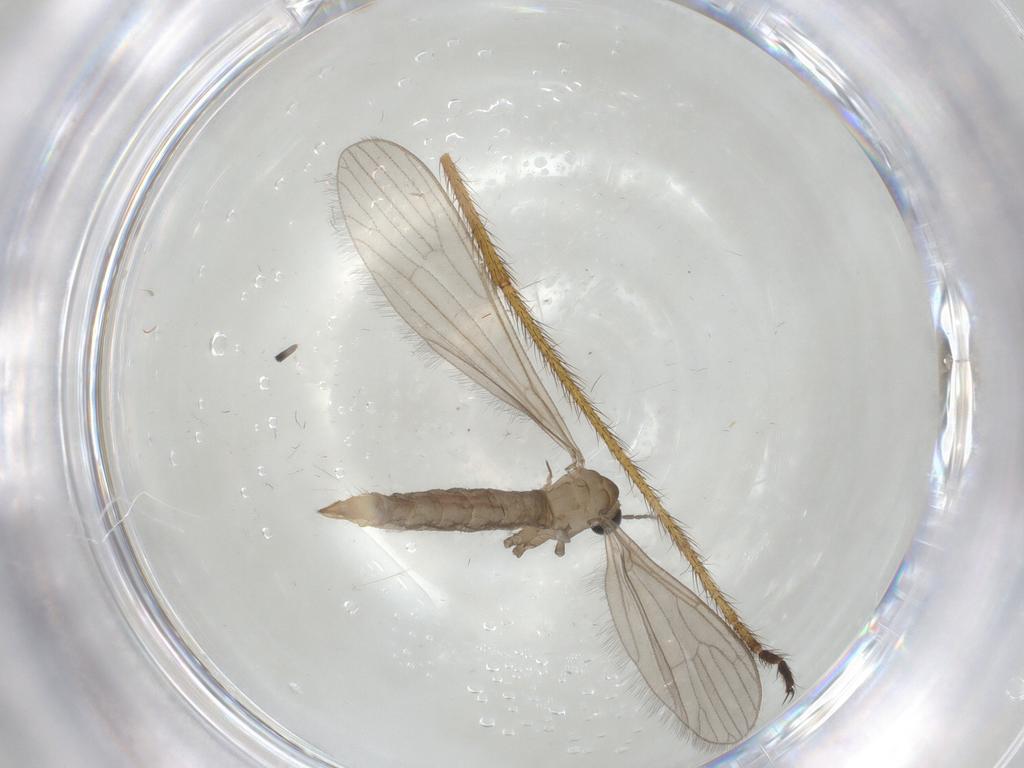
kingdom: Animalia
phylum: Arthropoda
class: Insecta
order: Diptera
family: Limoniidae
